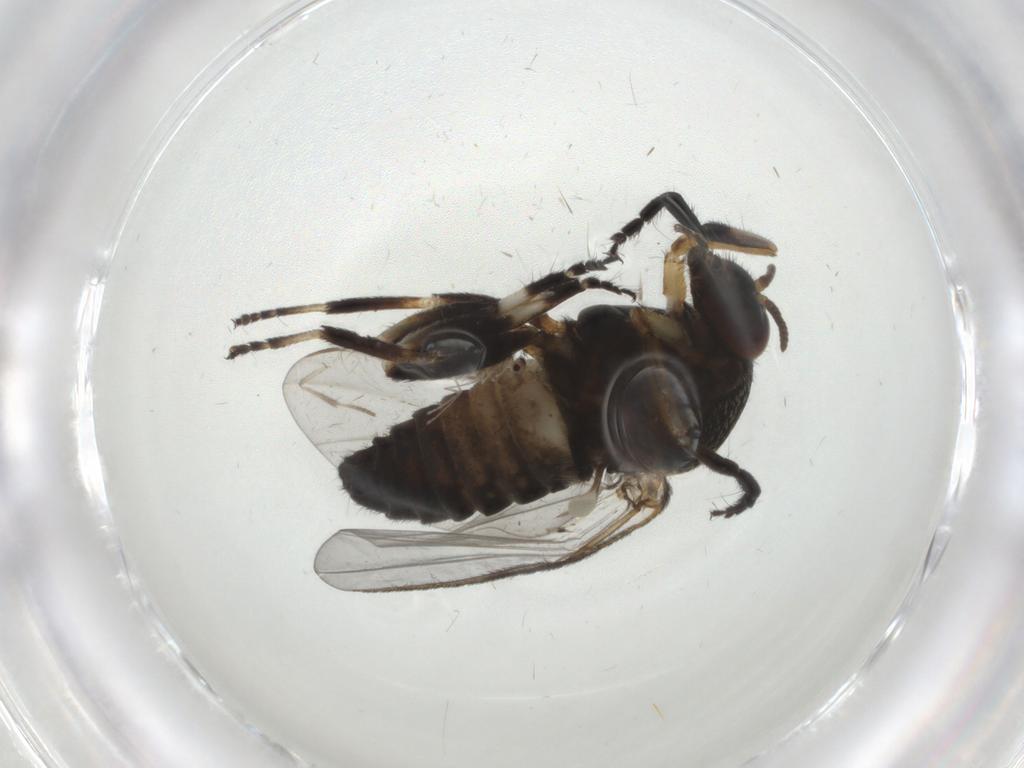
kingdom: Animalia
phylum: Arthropoda
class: Insecta
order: Diptera
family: Simuliidae
